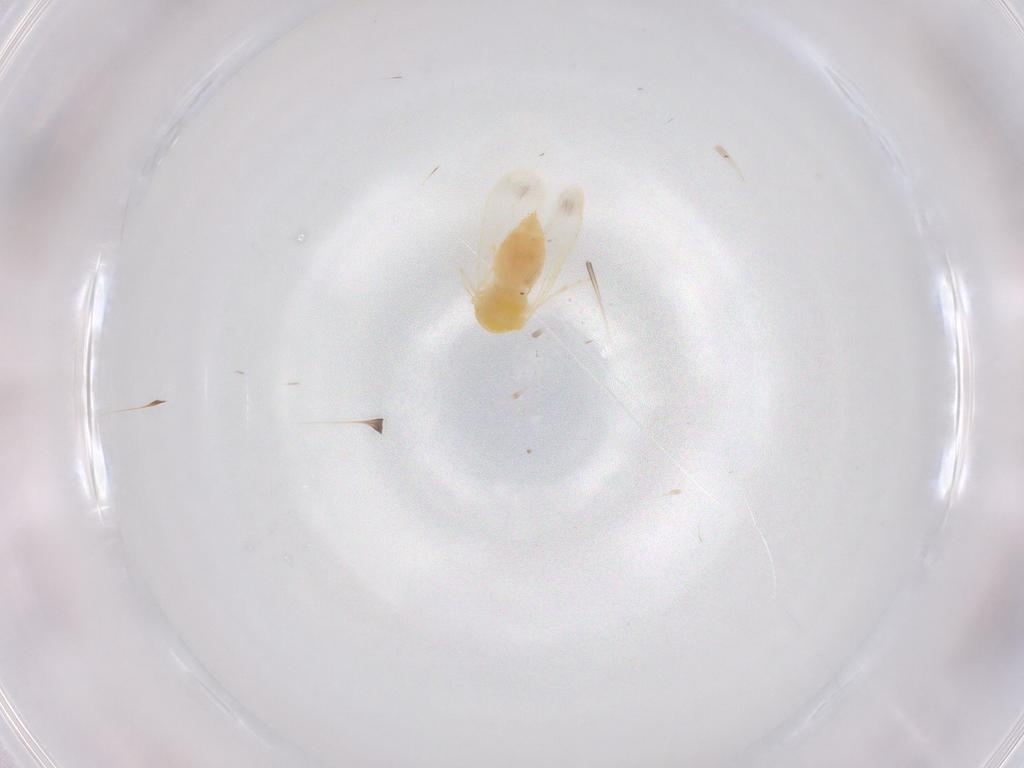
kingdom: Animalia
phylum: Arthropoda
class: Insecta
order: Hemiptera
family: Aleyrodidae
